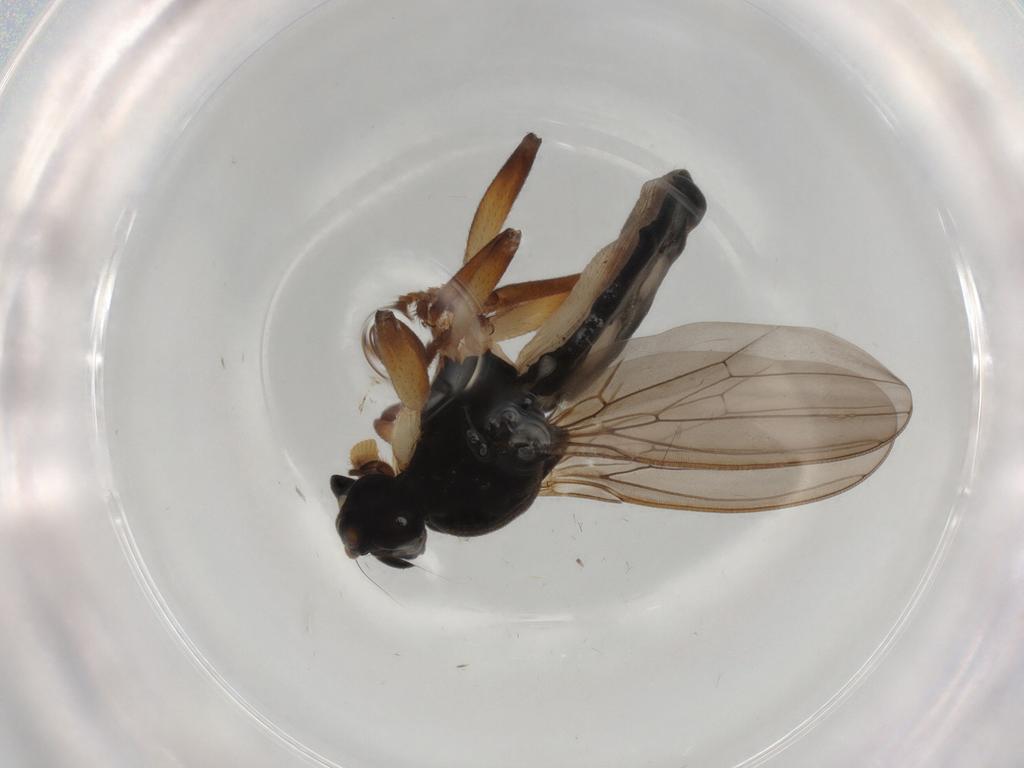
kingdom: Animalia
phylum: Arthropoda
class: Insecta
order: Diptera
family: Sphaeroceridae
